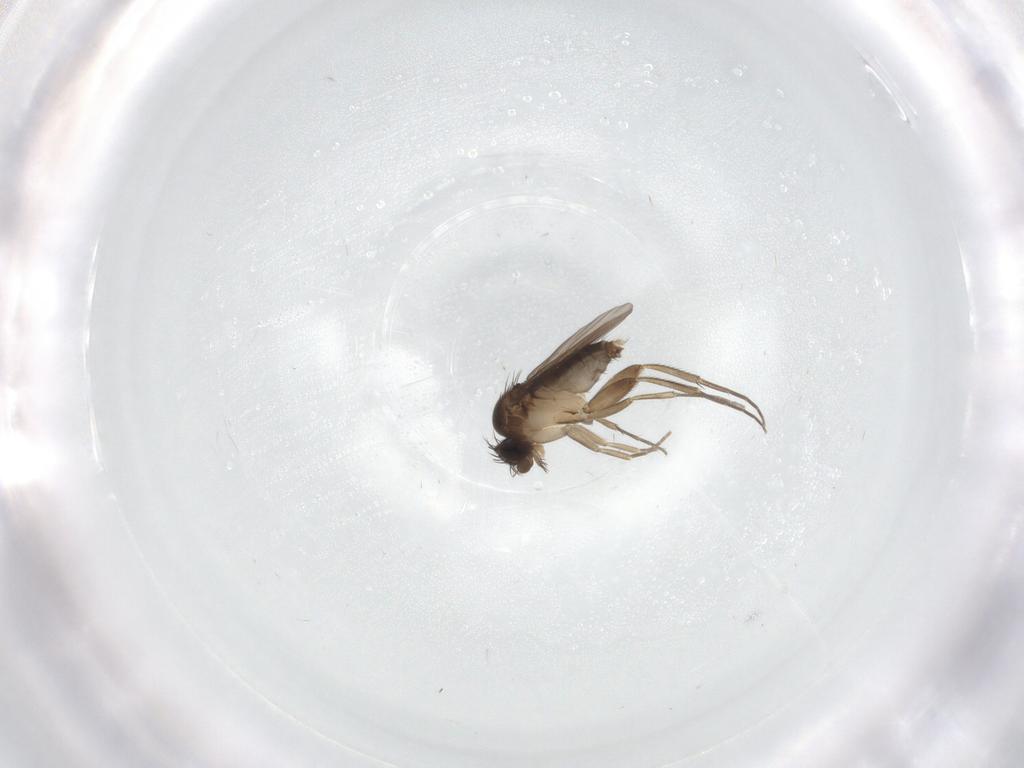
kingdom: Animalia
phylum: Arthropoda
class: Insecta
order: Diptera
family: Phoridae
